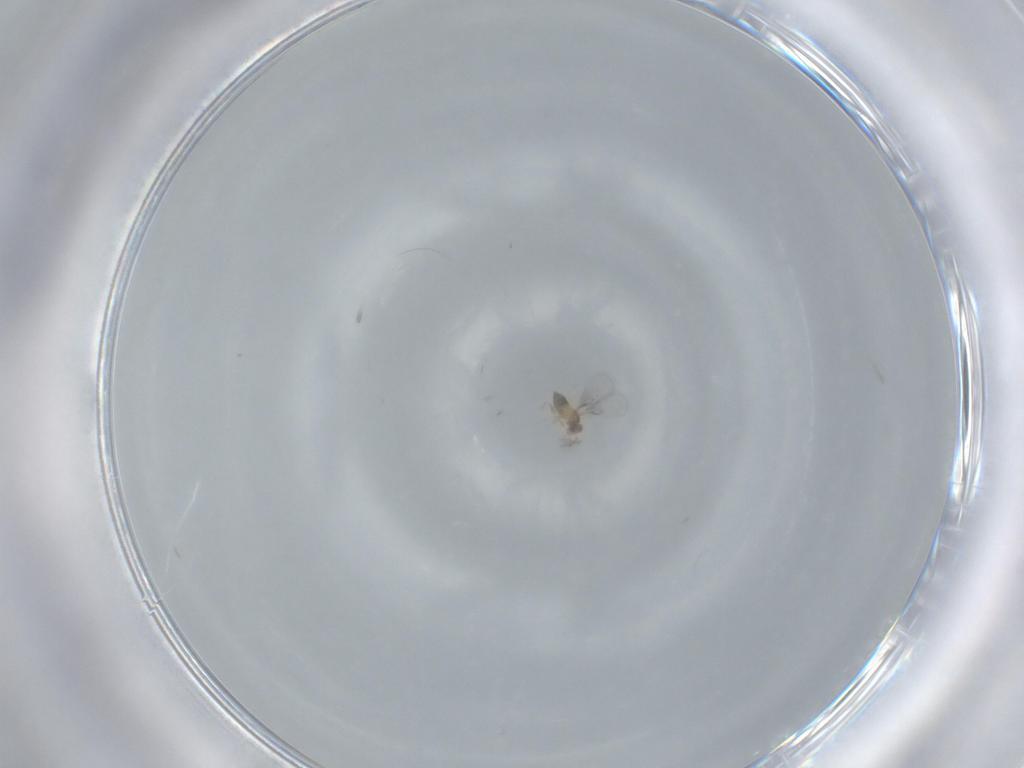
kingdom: Animalia
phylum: Arthropoda
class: Insecta
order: Hymenoptera
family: Trichogrammatidae
